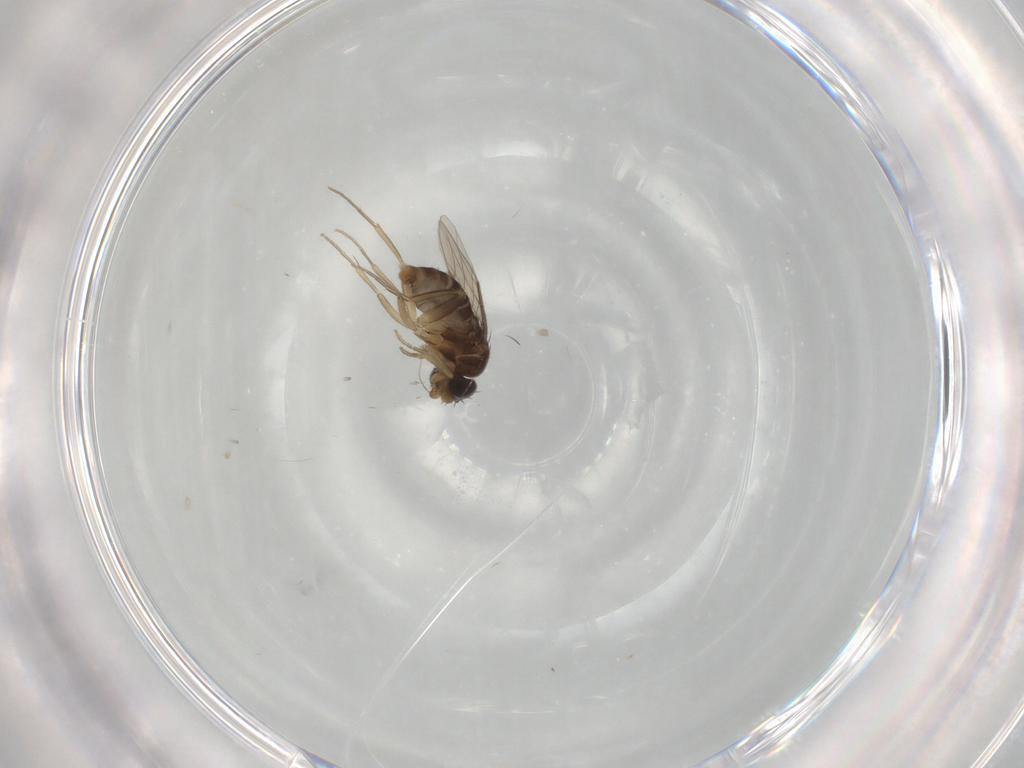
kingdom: Animalia
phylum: Arthropoda
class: Insecta
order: Diptera
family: Phoridae
